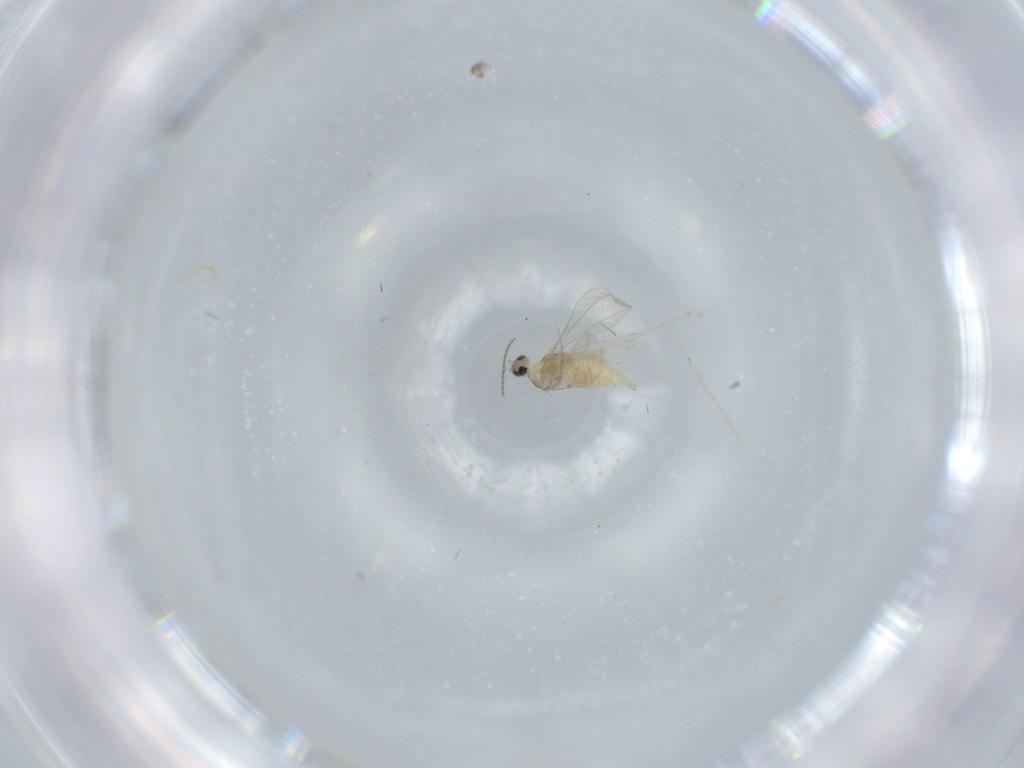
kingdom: Animalia
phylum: Arthropoda
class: Insecta
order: Diptera
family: Cecidomyiidae
